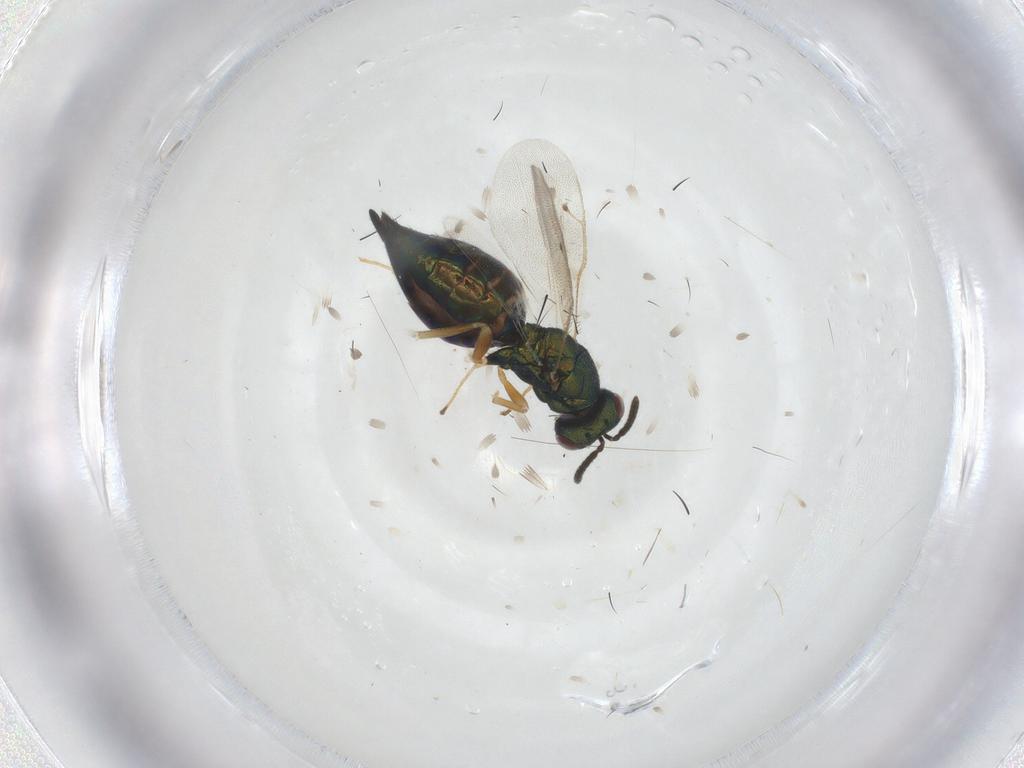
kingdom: Animalia
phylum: Arthropoda
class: Insecta
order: Hymenoptera
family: Pteromalidae
